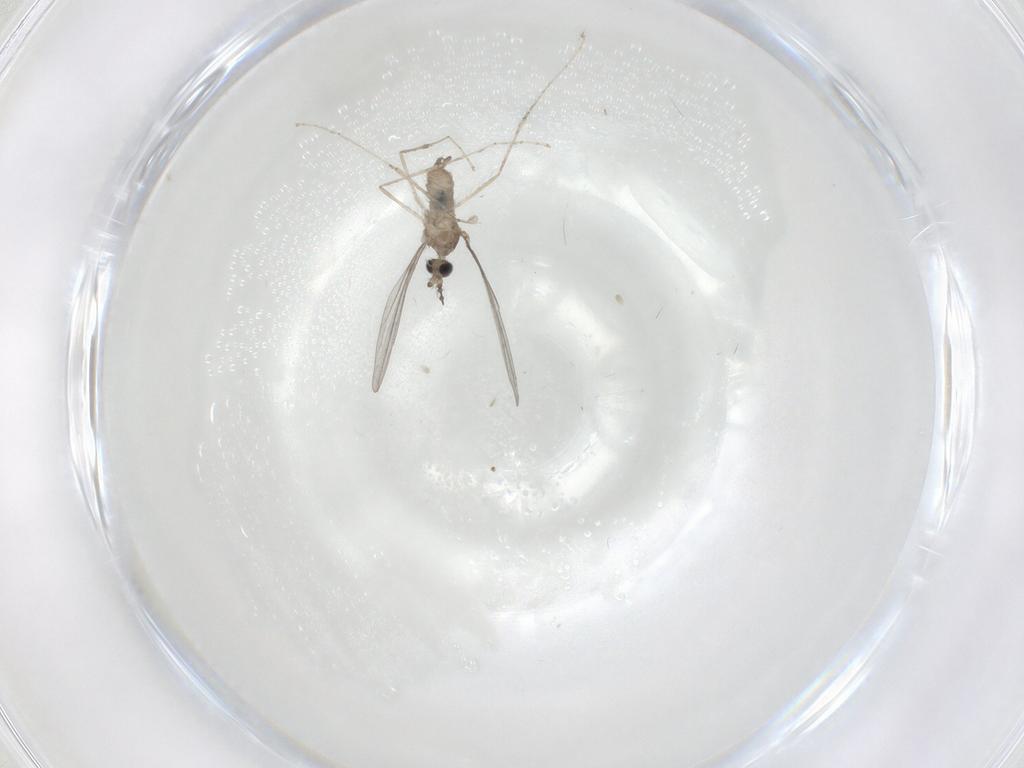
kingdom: Animalia
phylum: Arthropoda
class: Insecta
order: Diptera
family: Cecidomyiidae
